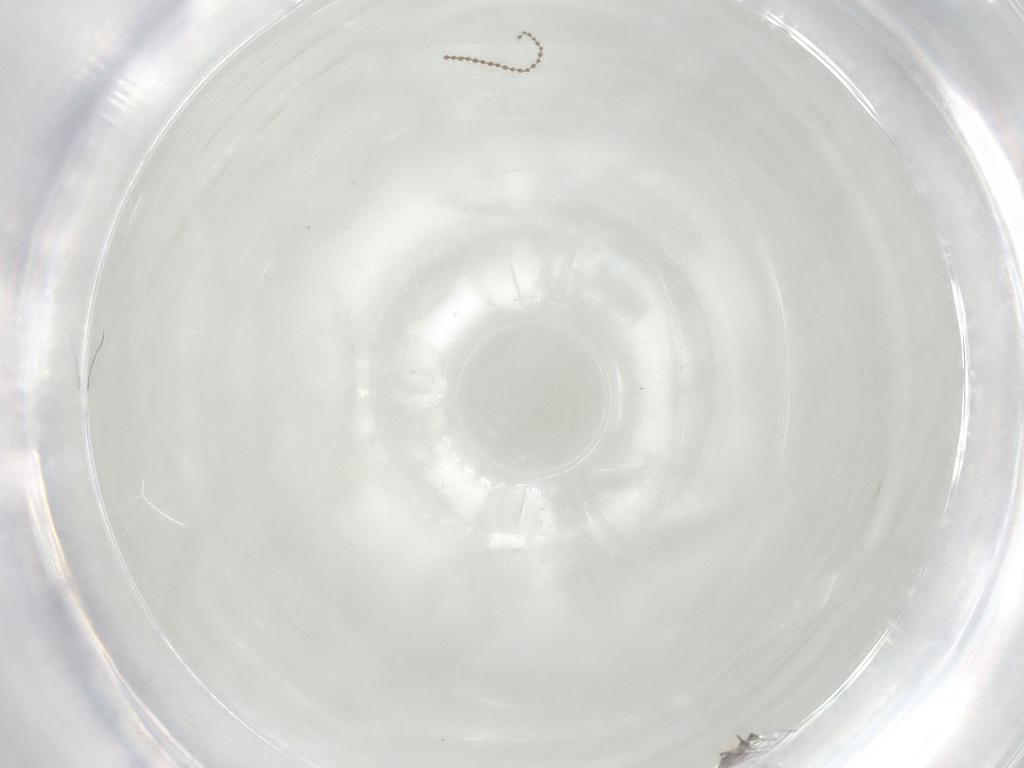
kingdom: Animalia
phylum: Arthropoda
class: Insecta
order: Hymenoptera
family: Mymaridae
